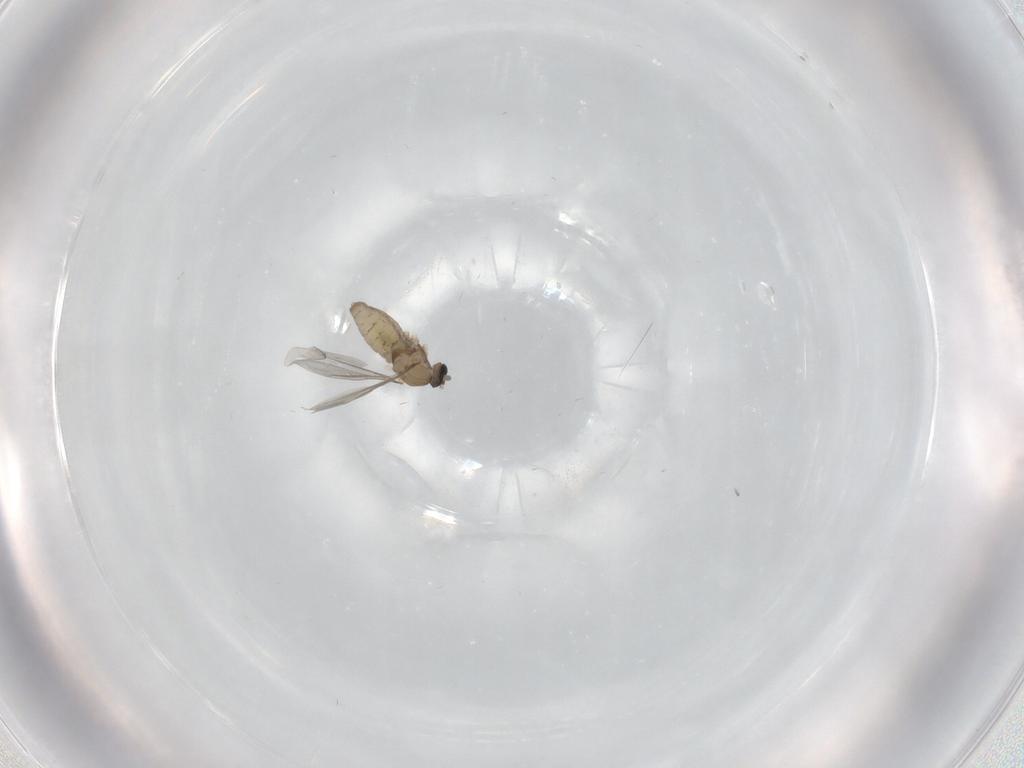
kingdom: Animalia
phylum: Arthropoda
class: Insecta
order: Diptera
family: Cecidomyiidae
